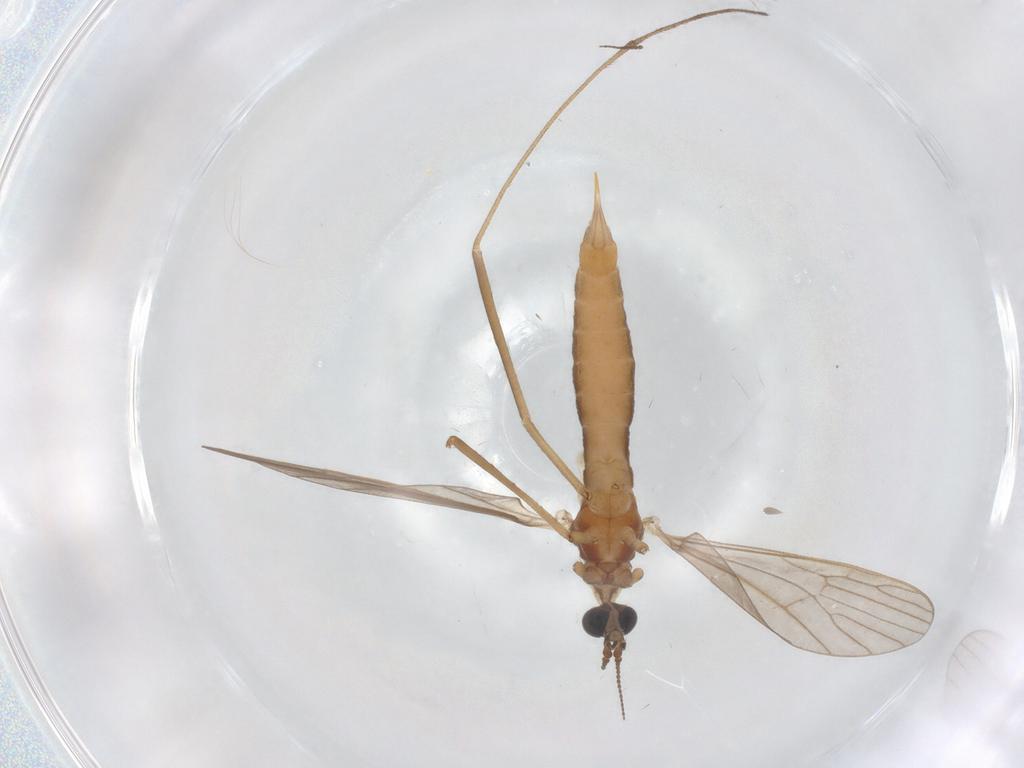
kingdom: Animalia
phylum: Arthropoda
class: Insecta
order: Diptera
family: Limoniidae
